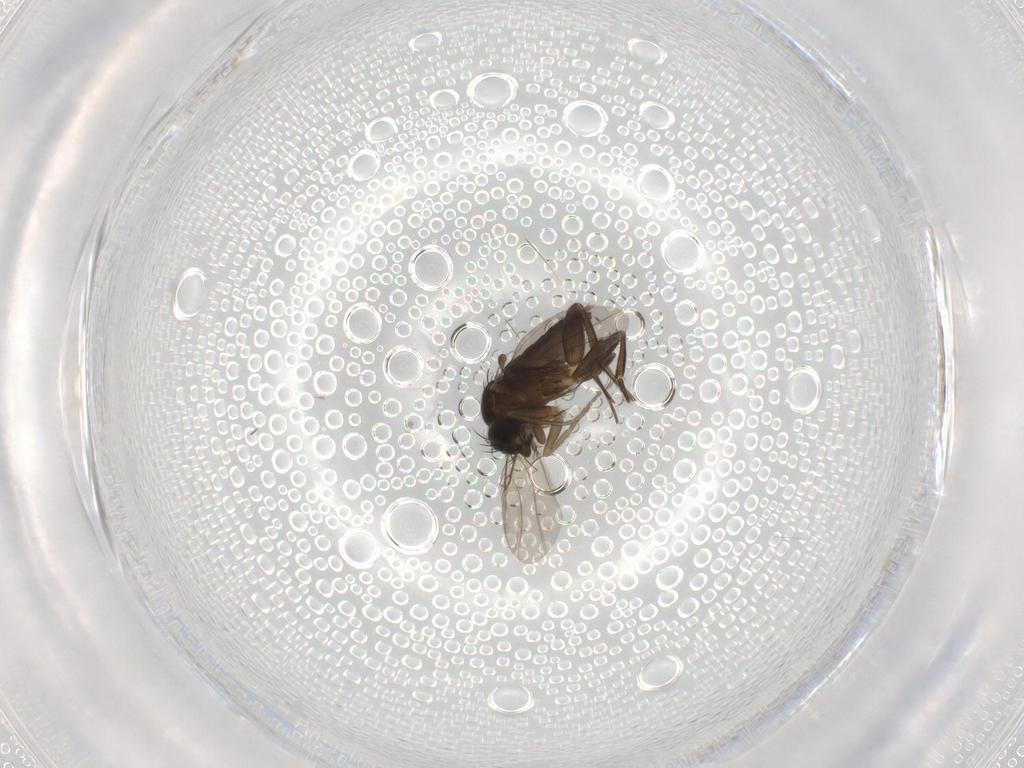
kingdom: Animalia
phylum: Arthropoda
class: Insecta
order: Diptera
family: Phoridae
